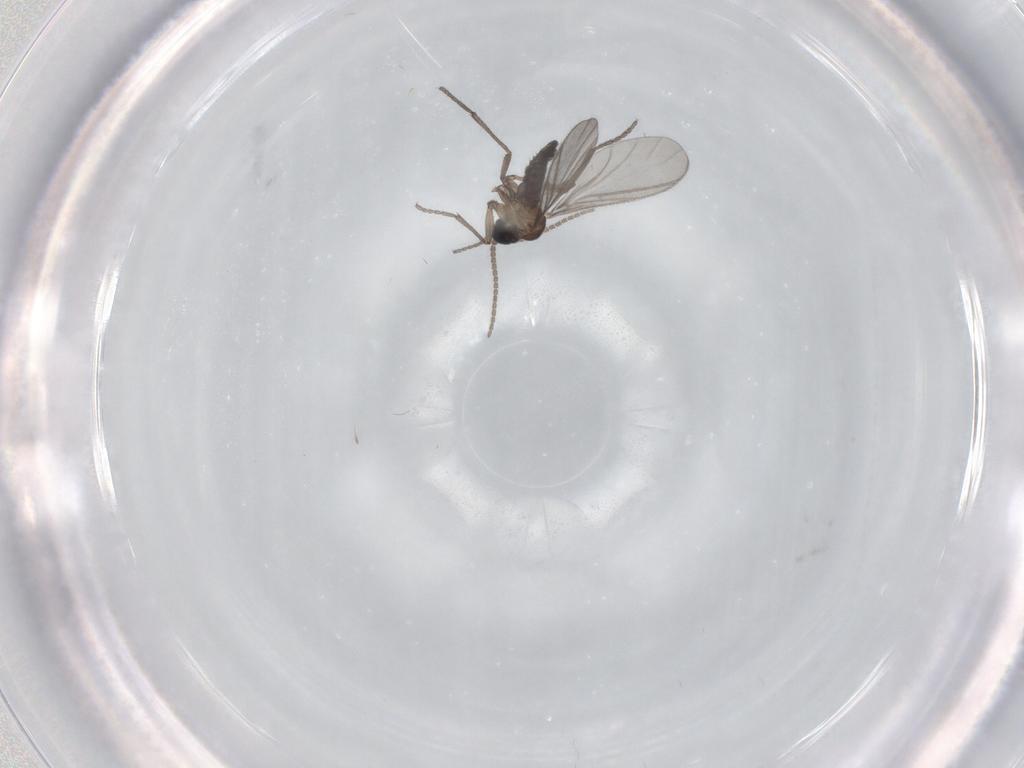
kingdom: Animalia
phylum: Arthropoda
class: Insecta
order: Diptera
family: Sciaridae
